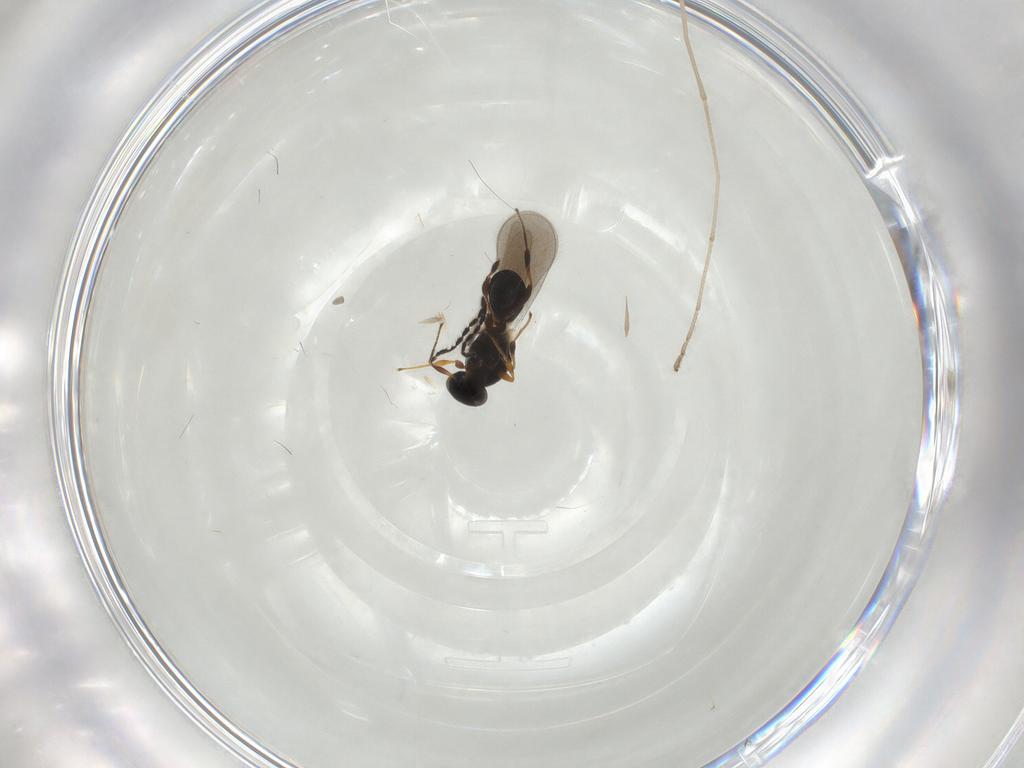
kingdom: Animalia
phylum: Arthropoda
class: Insecta
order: Hymenoptera
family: Platygastridae
